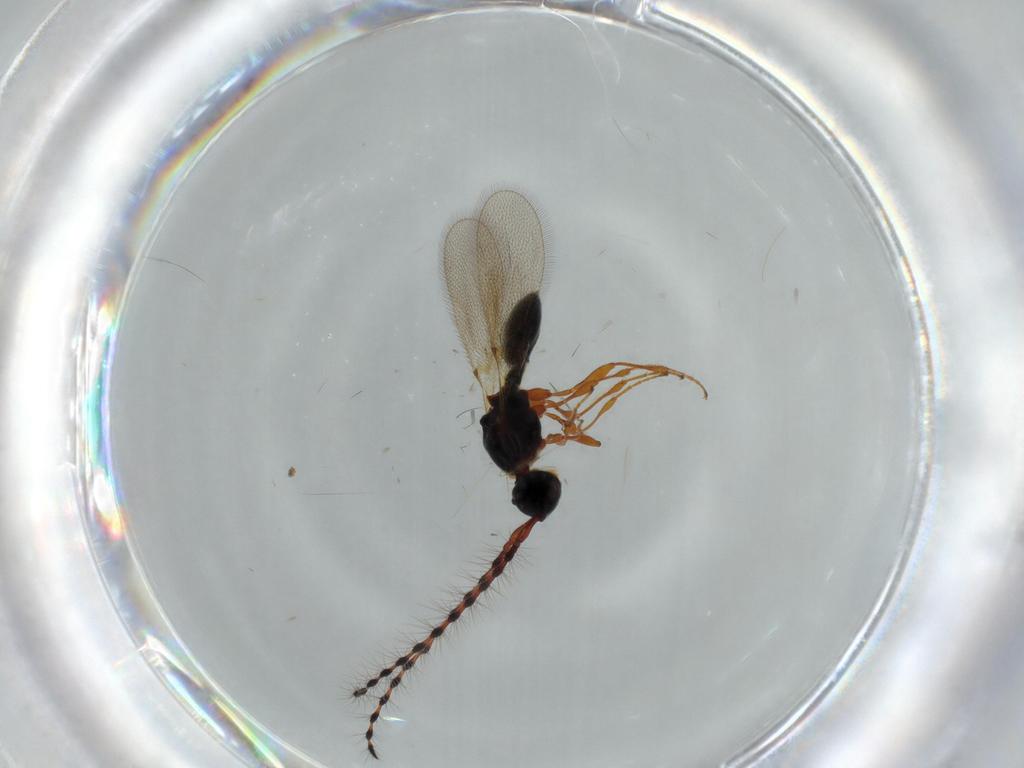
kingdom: Animalia
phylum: Arthropoda
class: Insecta
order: Hymenoptera
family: Diapriidae
